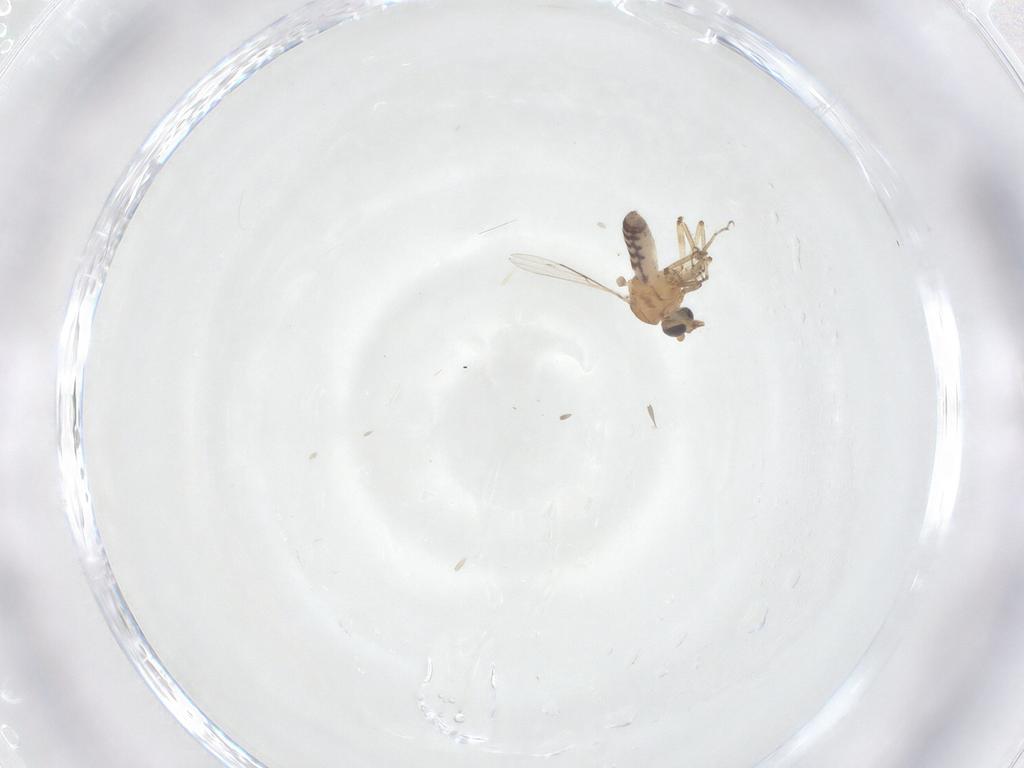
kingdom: Animalia
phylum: Arthropoda
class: Insecta
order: Diptera
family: Ceratopogonidae
